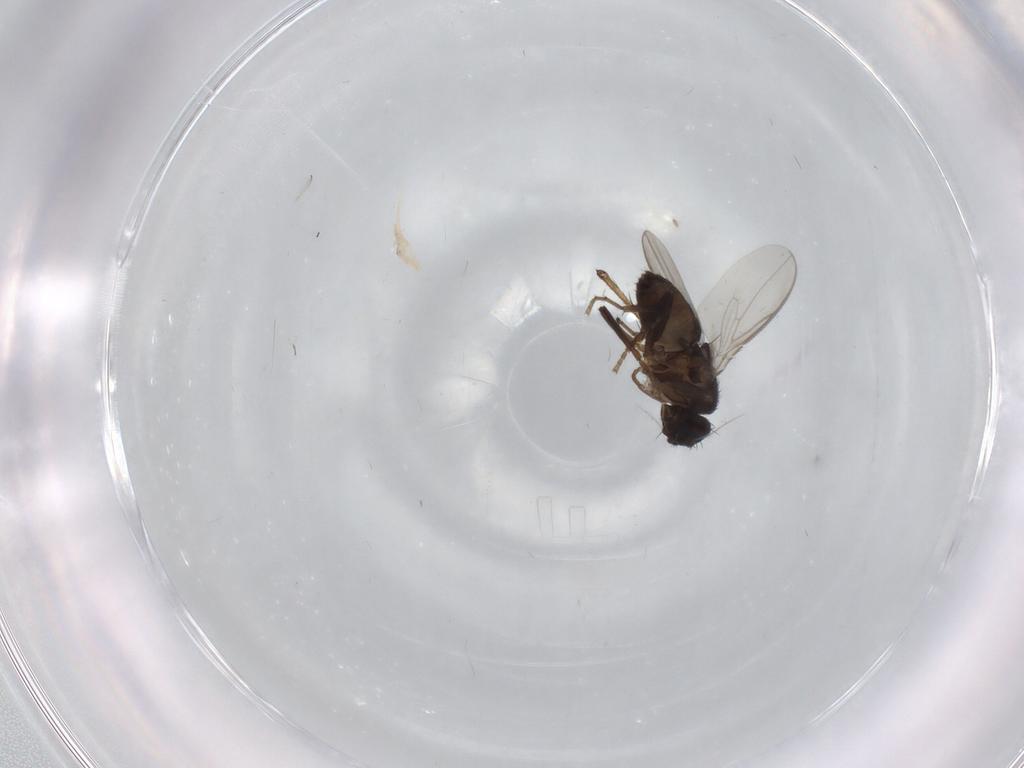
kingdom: Animalia
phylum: Arthropoda
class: Insecta
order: Diptera
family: Sphaeroceridae
